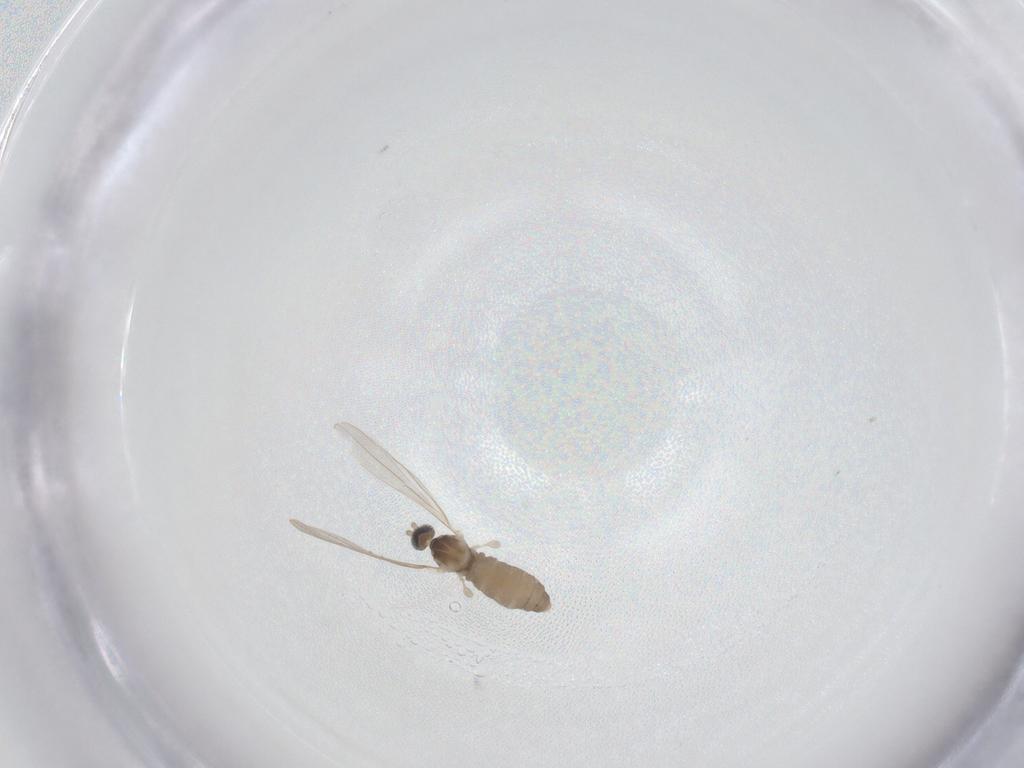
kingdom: Animalia
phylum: Arthropoda
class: Insecta
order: Diptera
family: Cecidomyiidae
